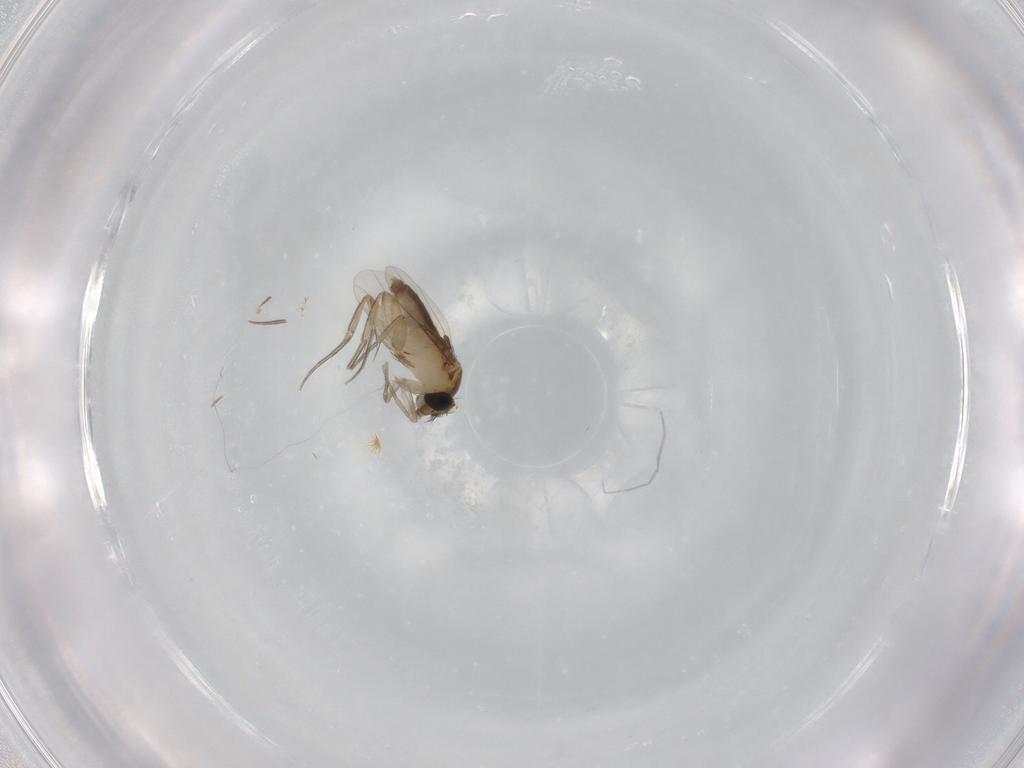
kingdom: Animalia
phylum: Arthropoda
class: Insecta
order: Diptera
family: Phoridae
